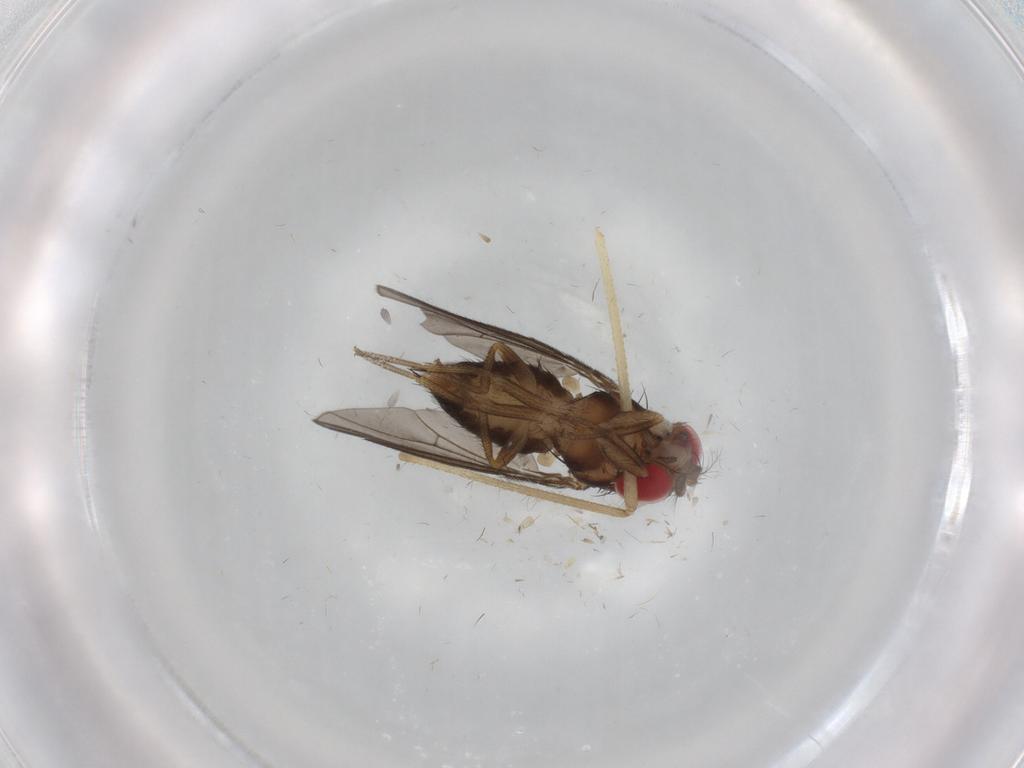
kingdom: Animalia
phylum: Arthropoda
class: Insecta
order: Diptera
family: Drosophilidae
